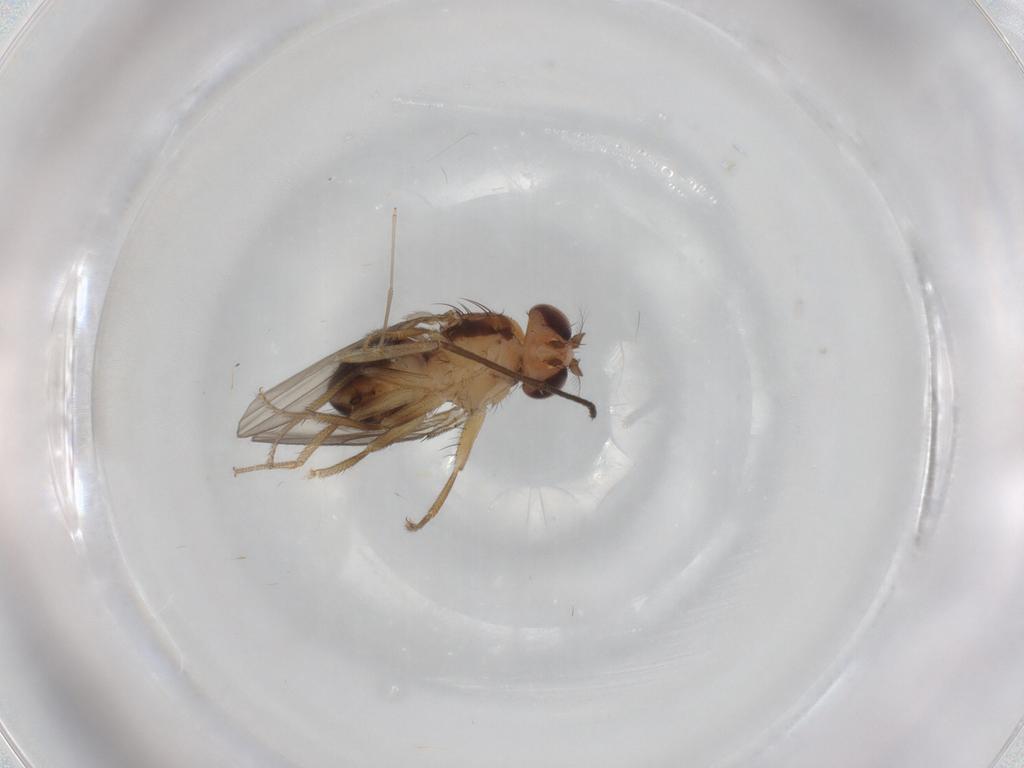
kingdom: Animalia
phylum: Arthropoda
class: Insecta
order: Diptera
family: Drosophilidae
